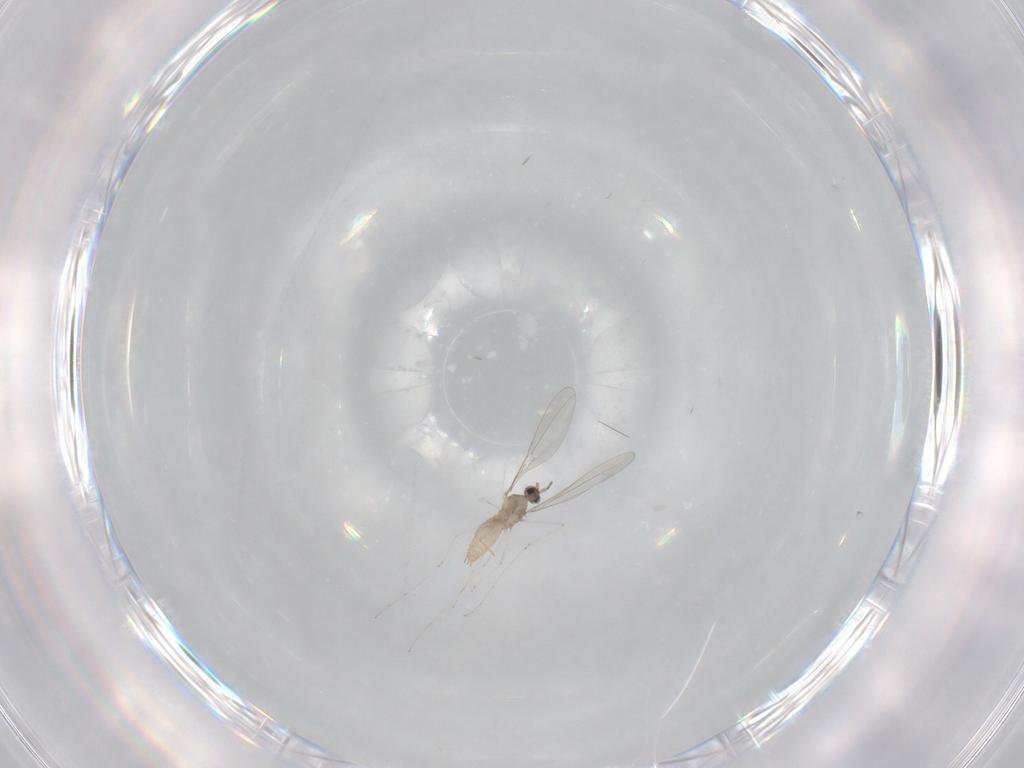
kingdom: Animalia
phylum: Arthropoda
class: Insecta
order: Diptera
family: Cecidomyiidae
